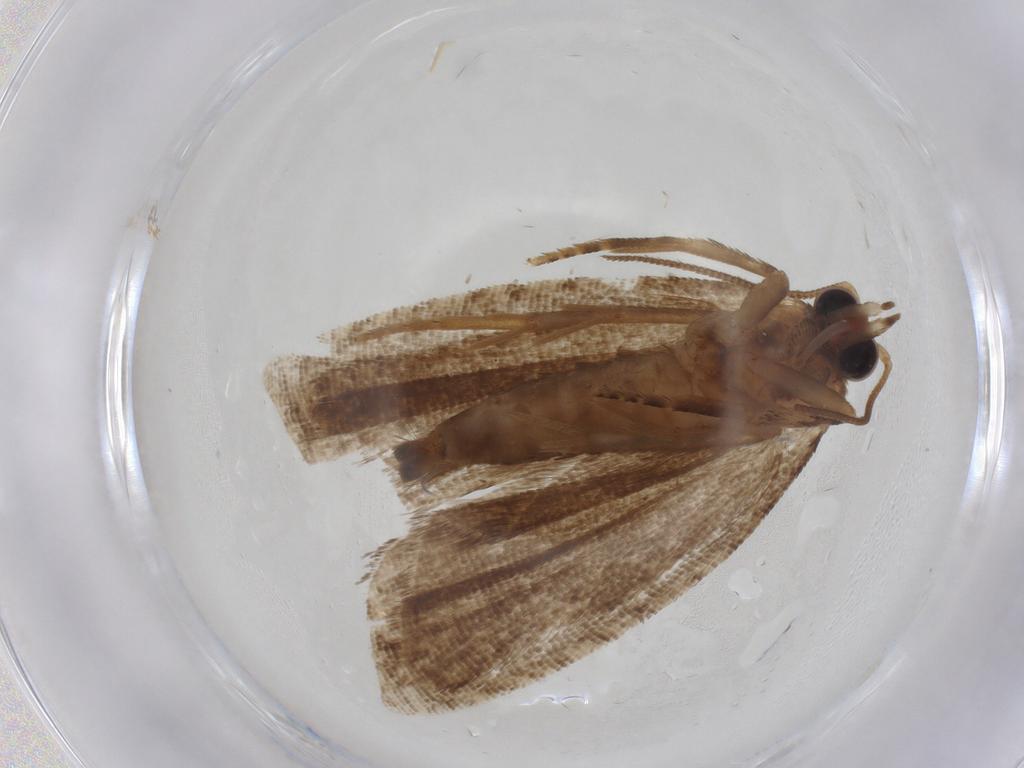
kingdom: Animalia
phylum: Arthropoda
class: Insecta
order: Lepidoptera
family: Tortricidae
